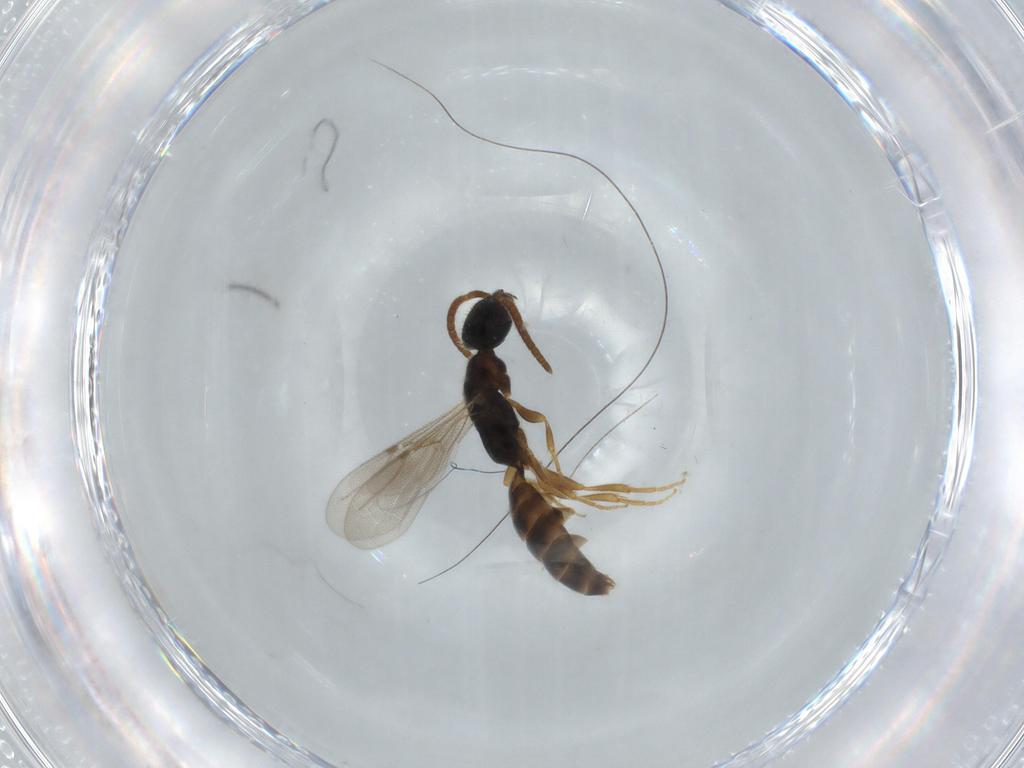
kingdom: Animalia
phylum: Arthropoda
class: Insecta
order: Hymenoptera
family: Bethylidae
